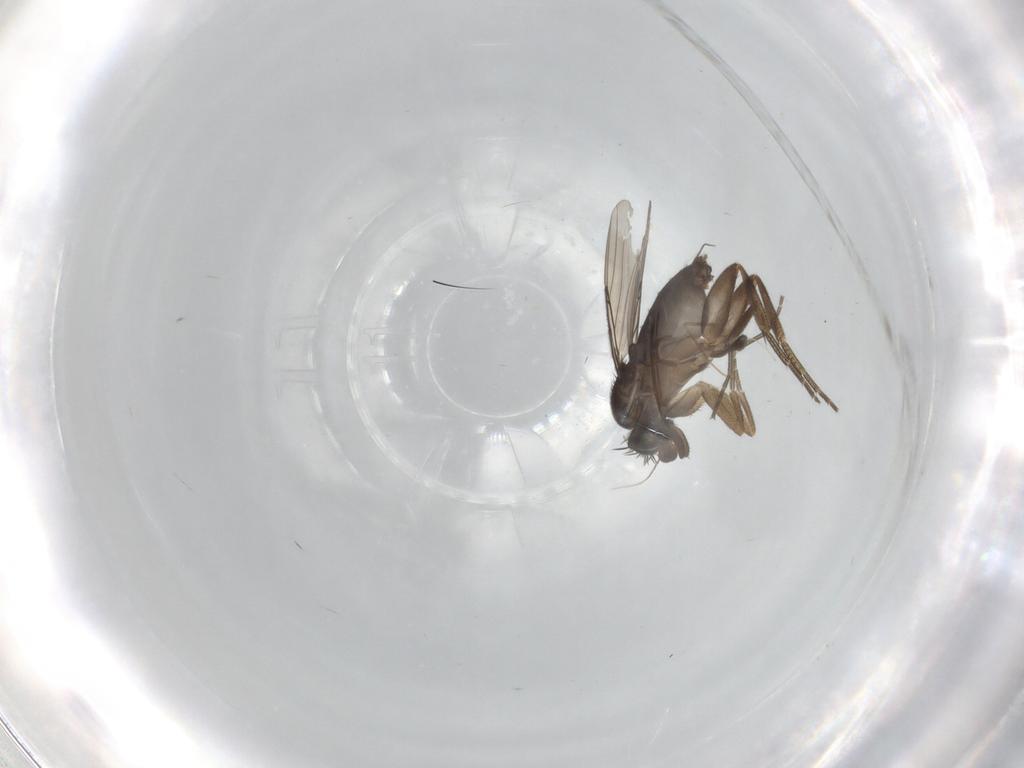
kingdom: Animalia
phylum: Arthropoda
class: Insecta
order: Diptera
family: Phoridae
